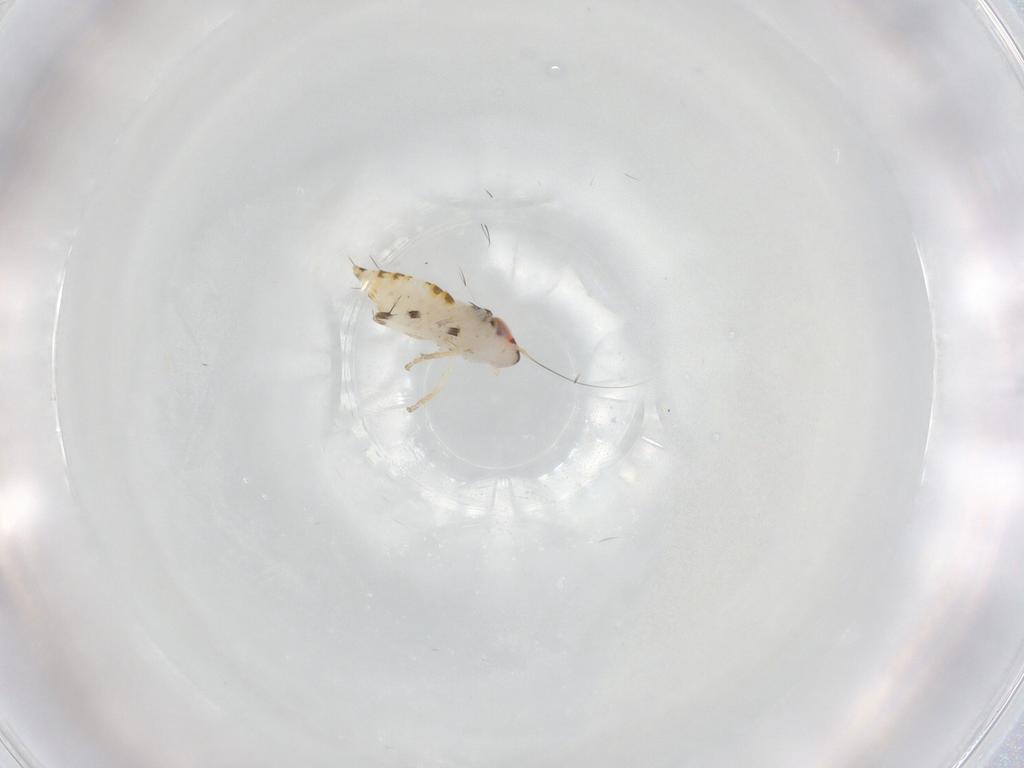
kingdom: Animalia
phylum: Arthropoda
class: Insecta
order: Hemiptera
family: Cicadellidae
